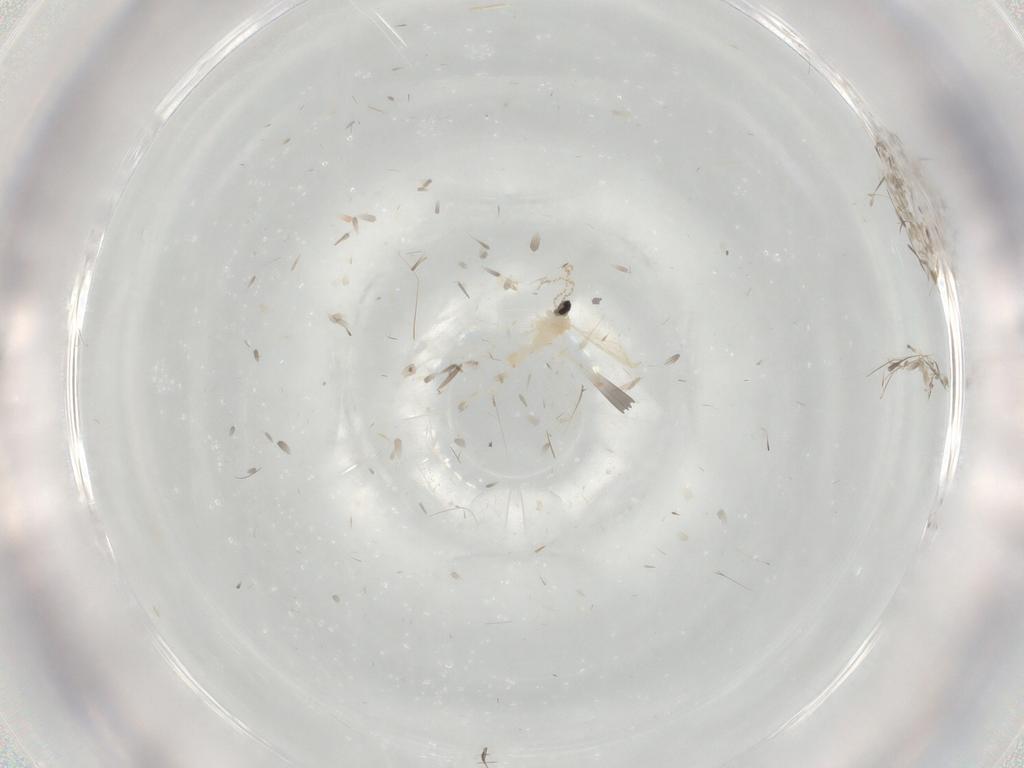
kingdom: Animalia
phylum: Arthropoda
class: Insecta
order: Diptera
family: Cecidomyiidae
